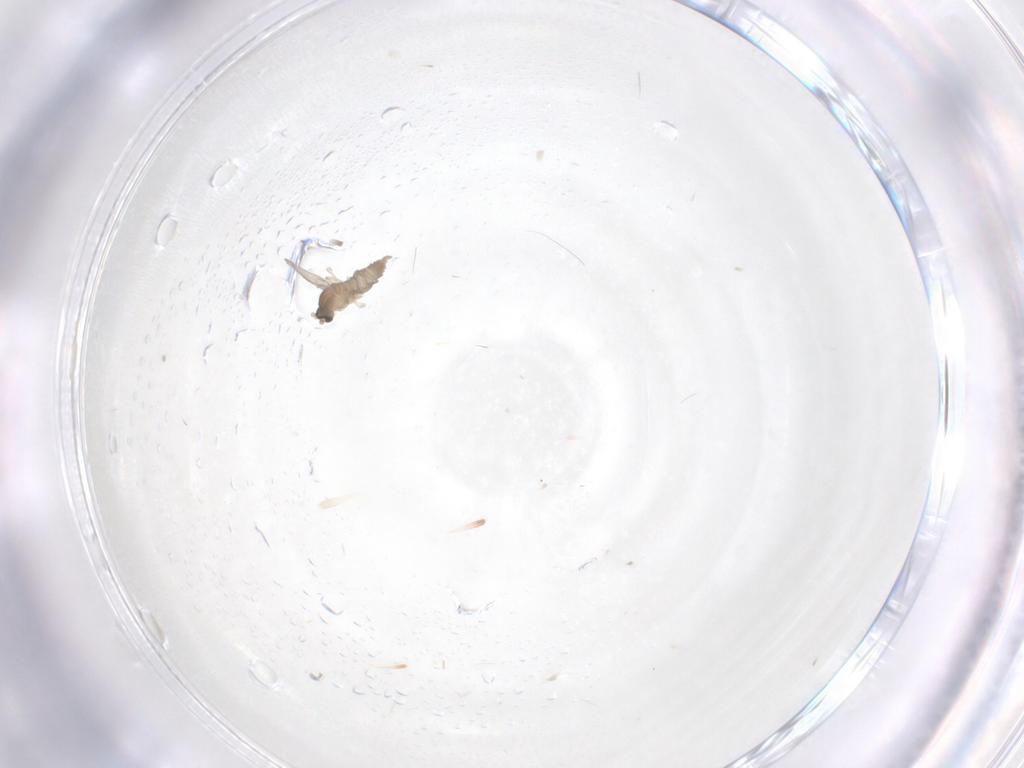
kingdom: Animalia
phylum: Arthropoda
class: Insecta
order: Diptera
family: Cecidomyiidae
